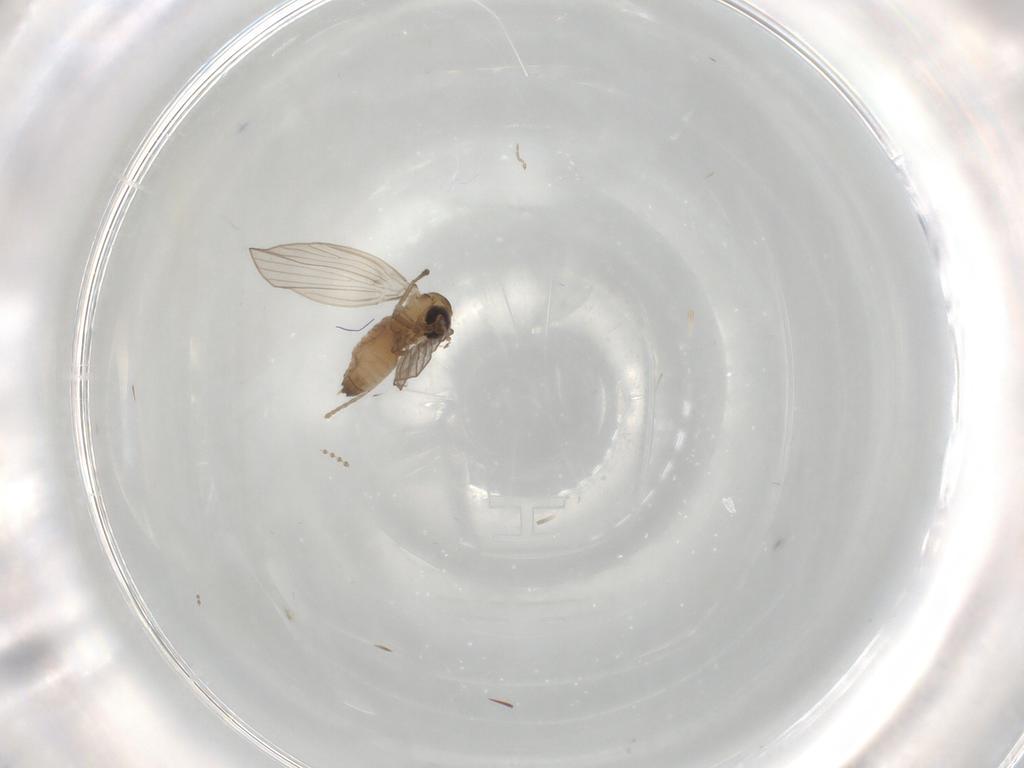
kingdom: Animalia
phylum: Arthropoda
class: Insecta
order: Diptera
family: Psychodidae
